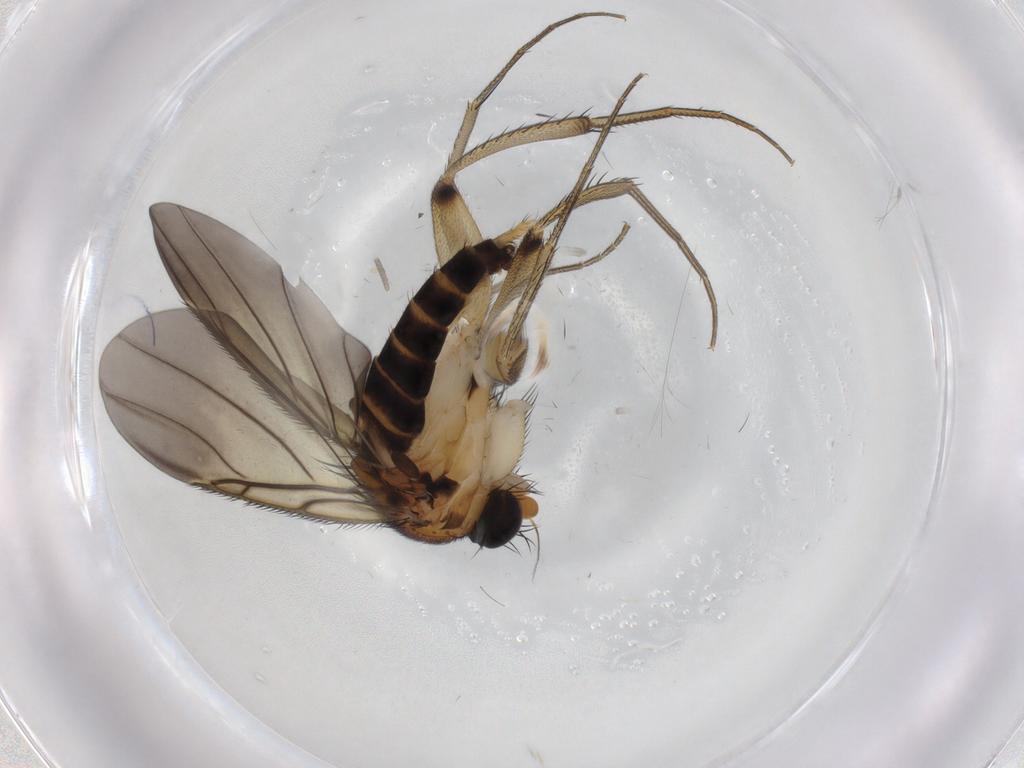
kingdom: Animalia
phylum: Arthropoda
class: Insecta
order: Diptera
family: Phoridae
